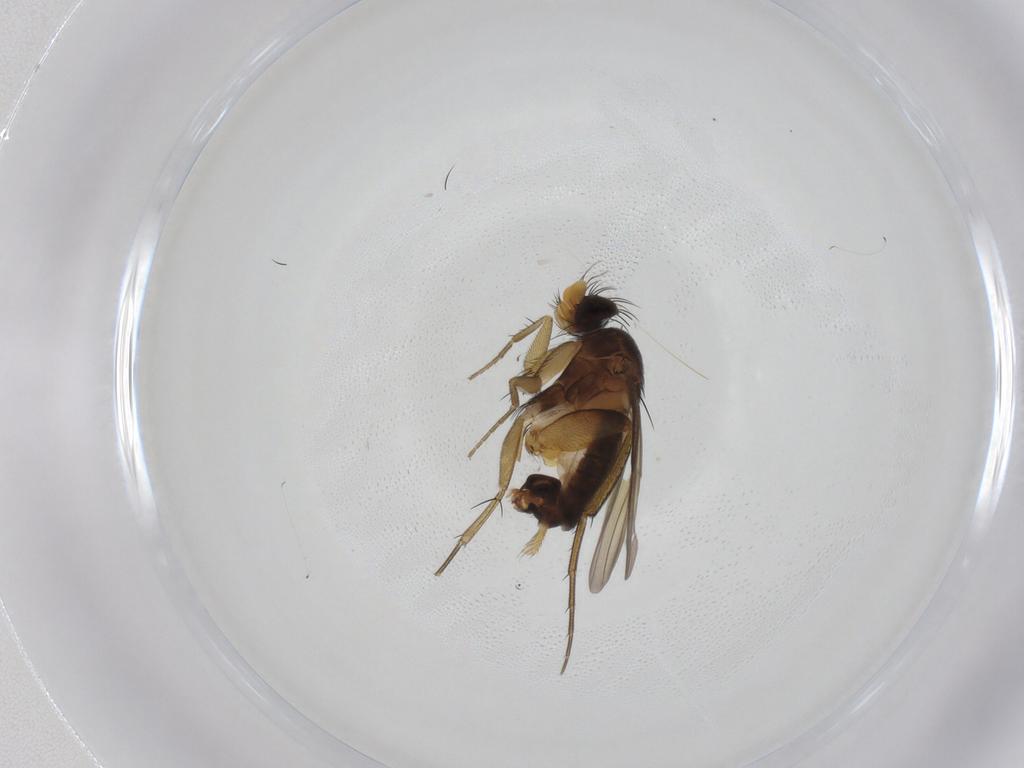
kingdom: Animalia
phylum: Arthropoda
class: Insecta
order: Diptera
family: Phoridae
